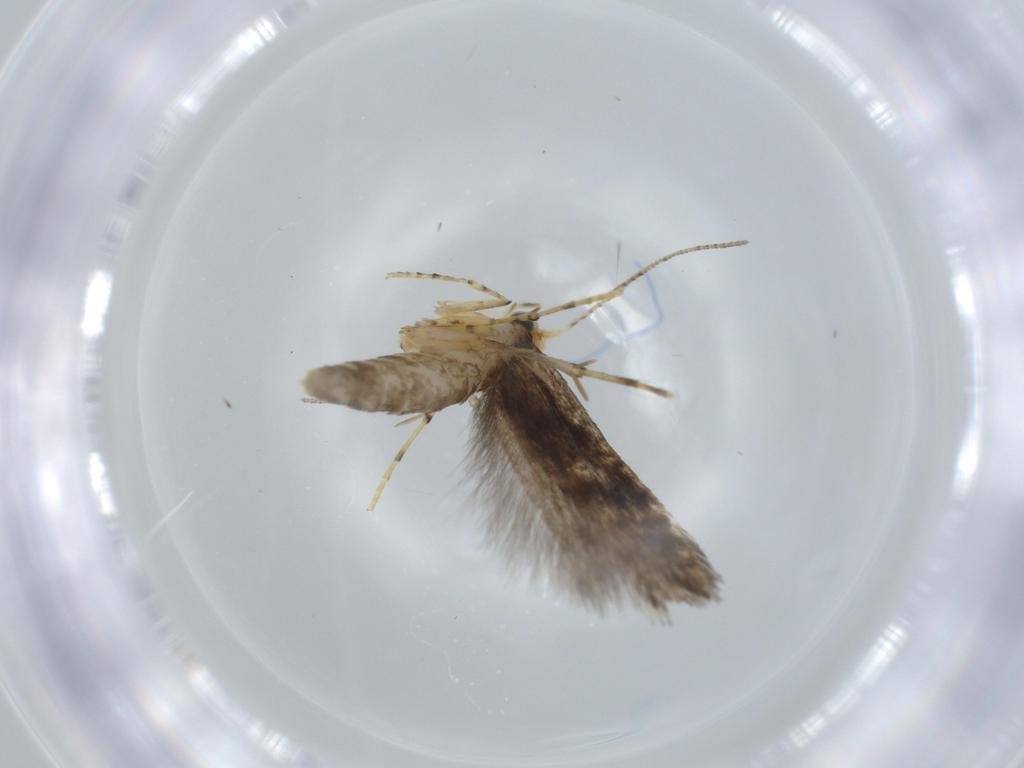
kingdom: Animalia
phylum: Arthropoda
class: Insecta
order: Lepidoptera
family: Argyresthiidae
